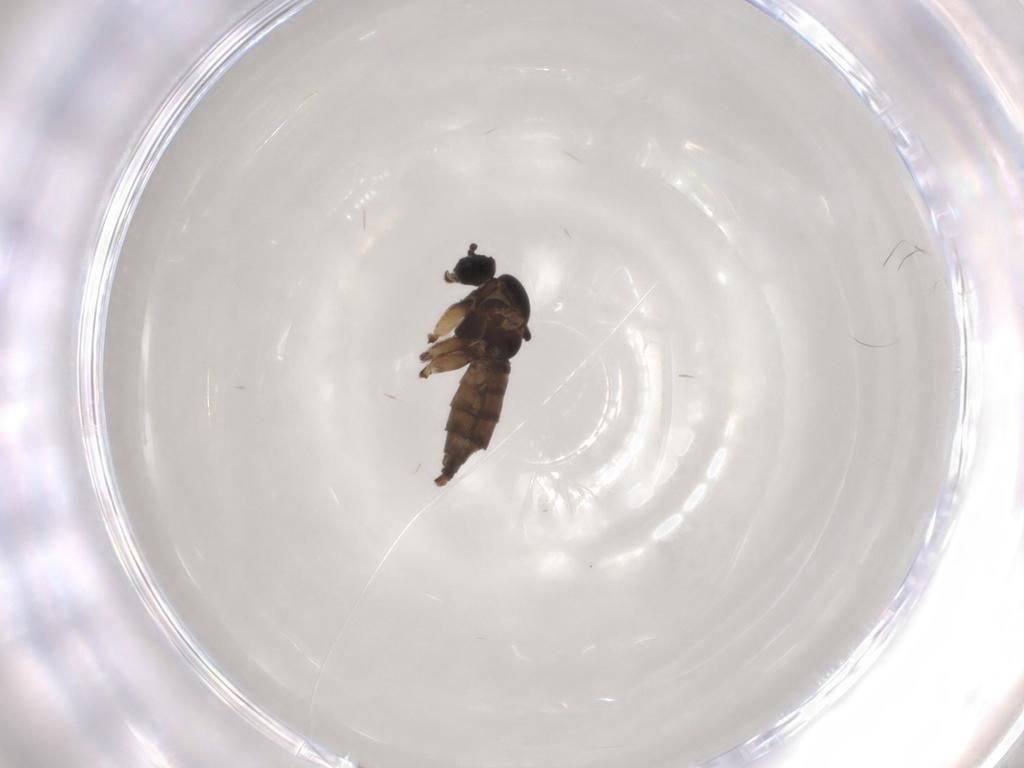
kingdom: Animalia
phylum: Arthropoda
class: Insecta
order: Diptera
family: Sciaridae
